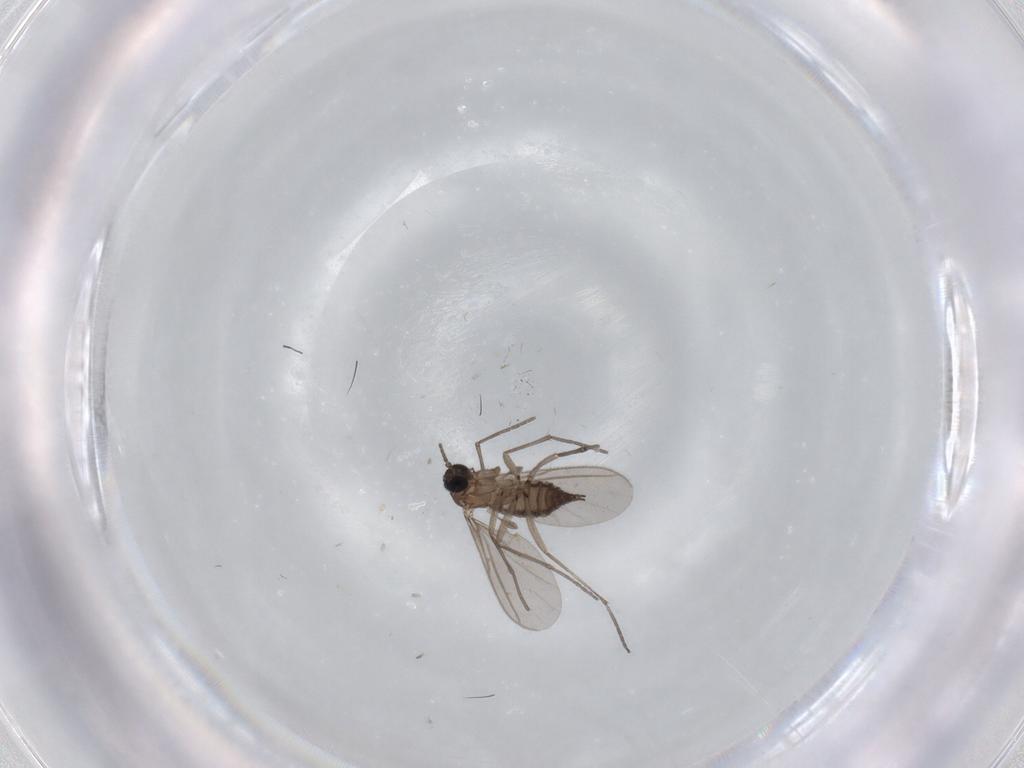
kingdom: Animalia
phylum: Arthropoda
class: Insecta
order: Diptera
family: Sciaridae
